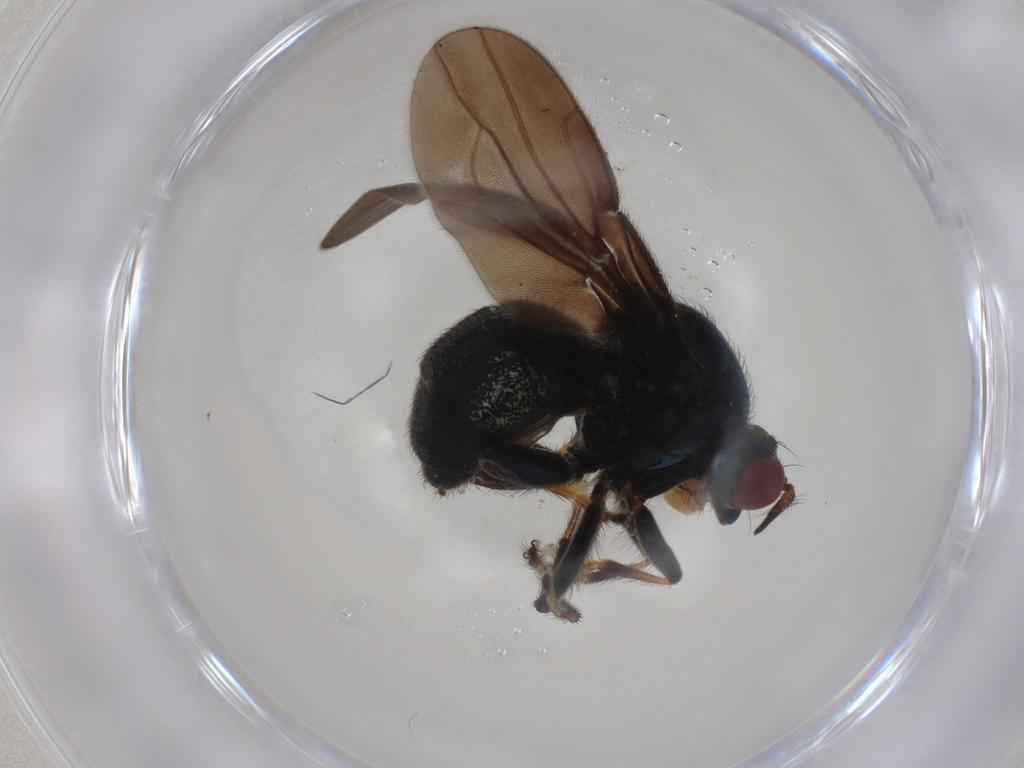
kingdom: Animalia
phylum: Arthropoda
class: Insecta
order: Diptera
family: Ephydridae
